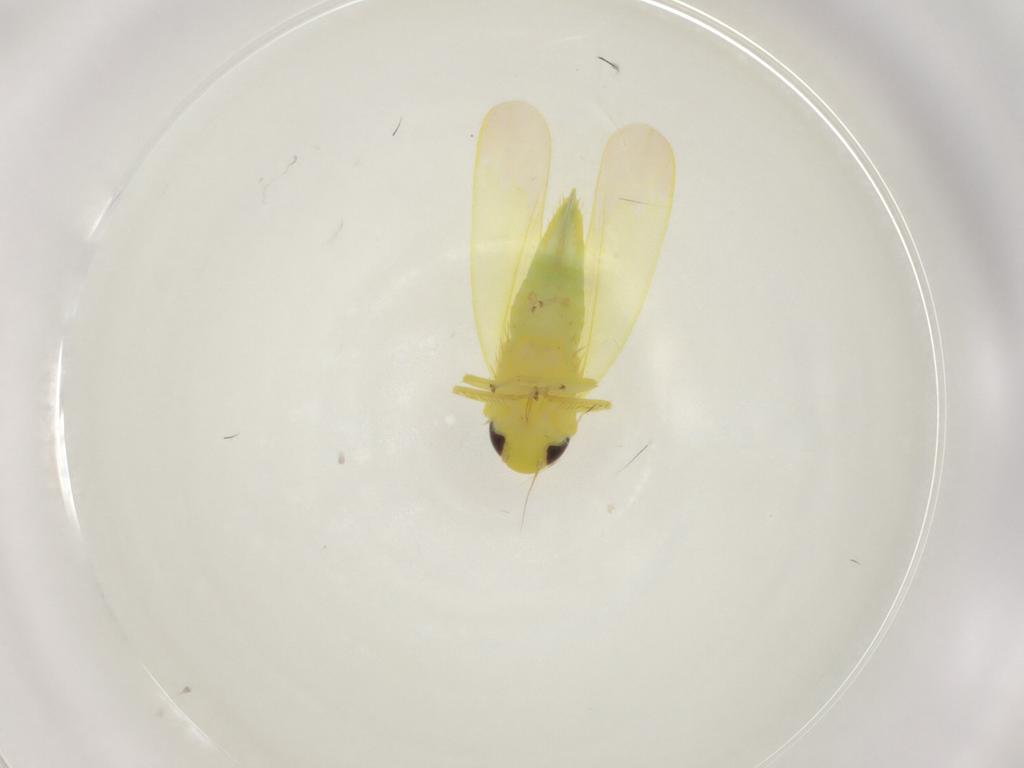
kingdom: Animalia
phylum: Arthropoda
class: Insecta
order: Hemiptera
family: Cicadellidae
